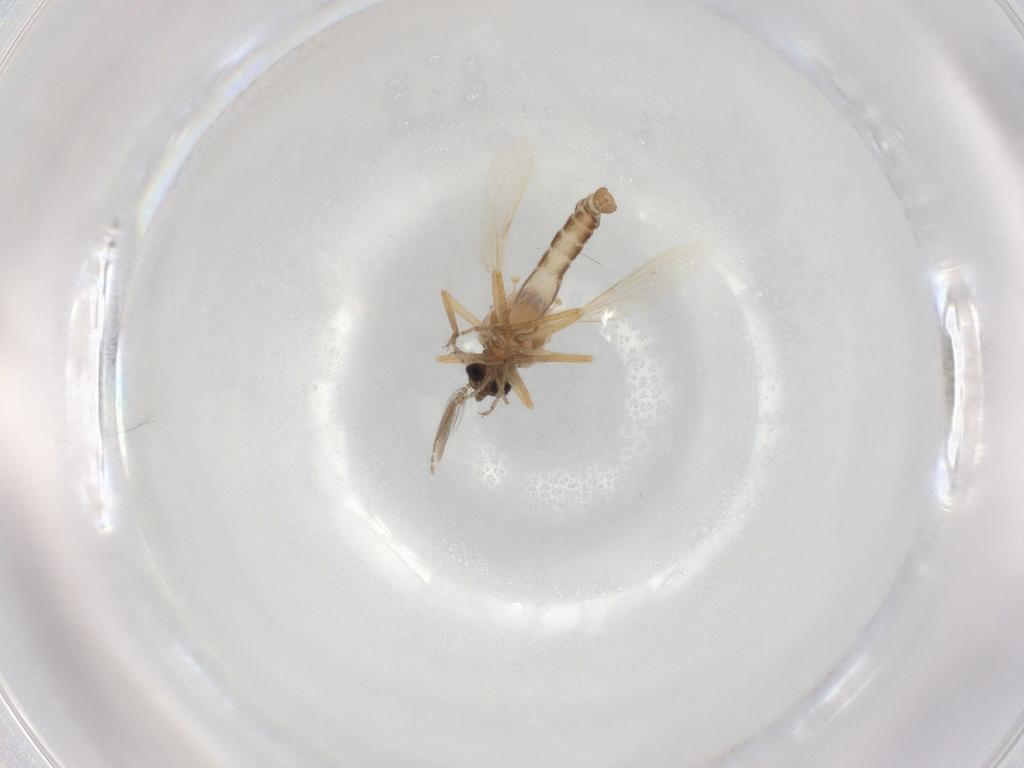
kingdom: Animalia
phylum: Arthropoda
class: Insecta
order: Diptera
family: Ceratopogonidae
